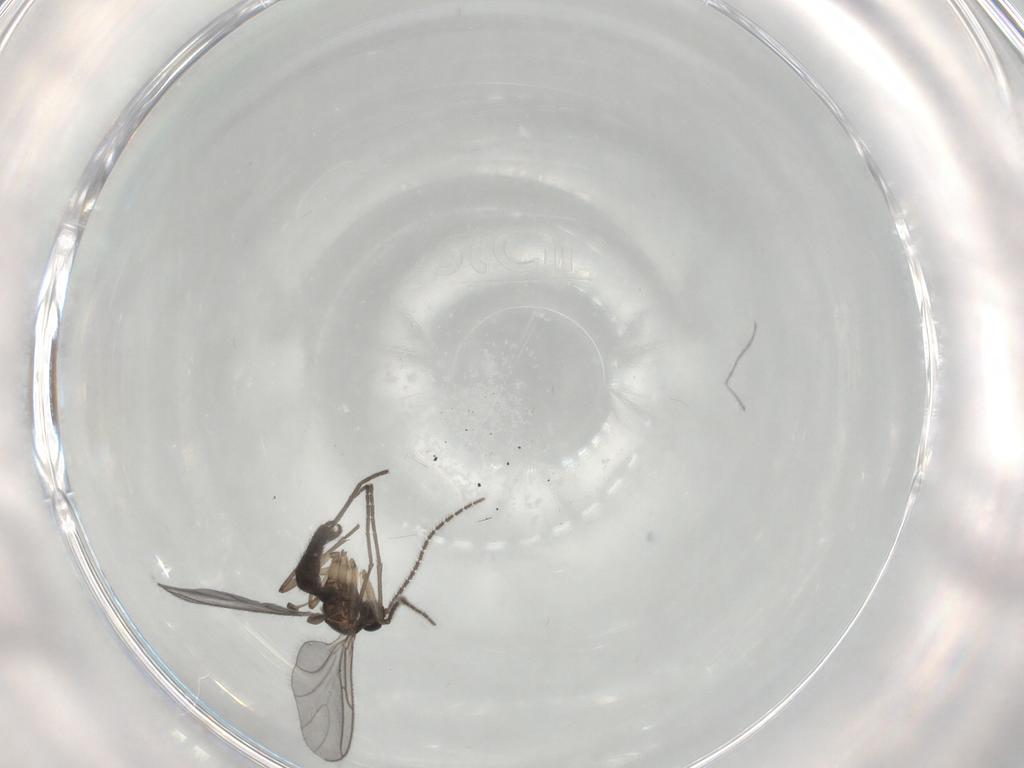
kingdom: Animalia
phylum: Arthropoda
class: Insecta
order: Diptera
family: Sciaridae
